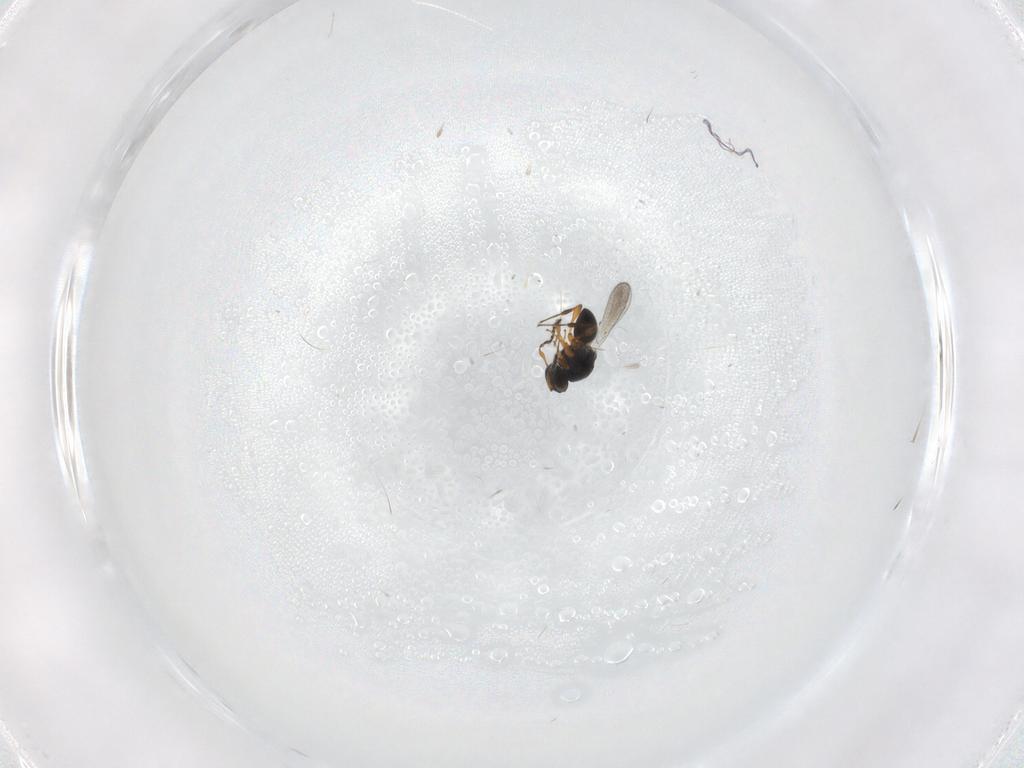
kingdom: Animalia
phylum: Arthropoda
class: Insecta
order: Hymenoptera
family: Platygastridae
